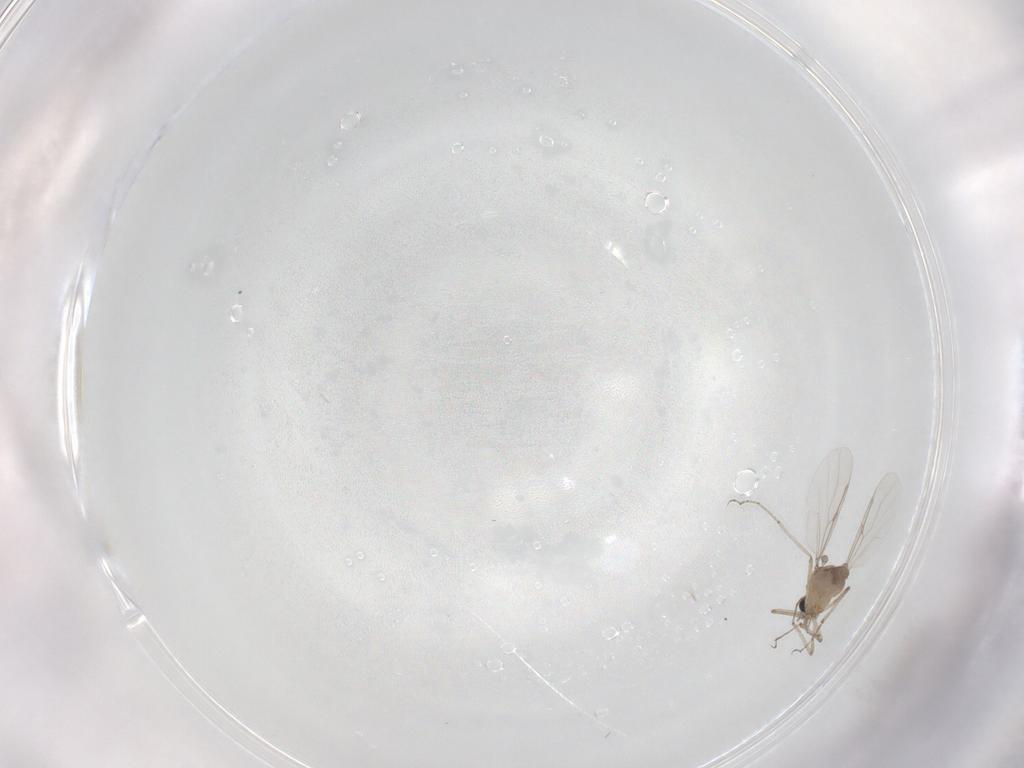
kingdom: Animalia
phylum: Arthropoda
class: Insecta
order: Diptera
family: Ceratopogonidae
